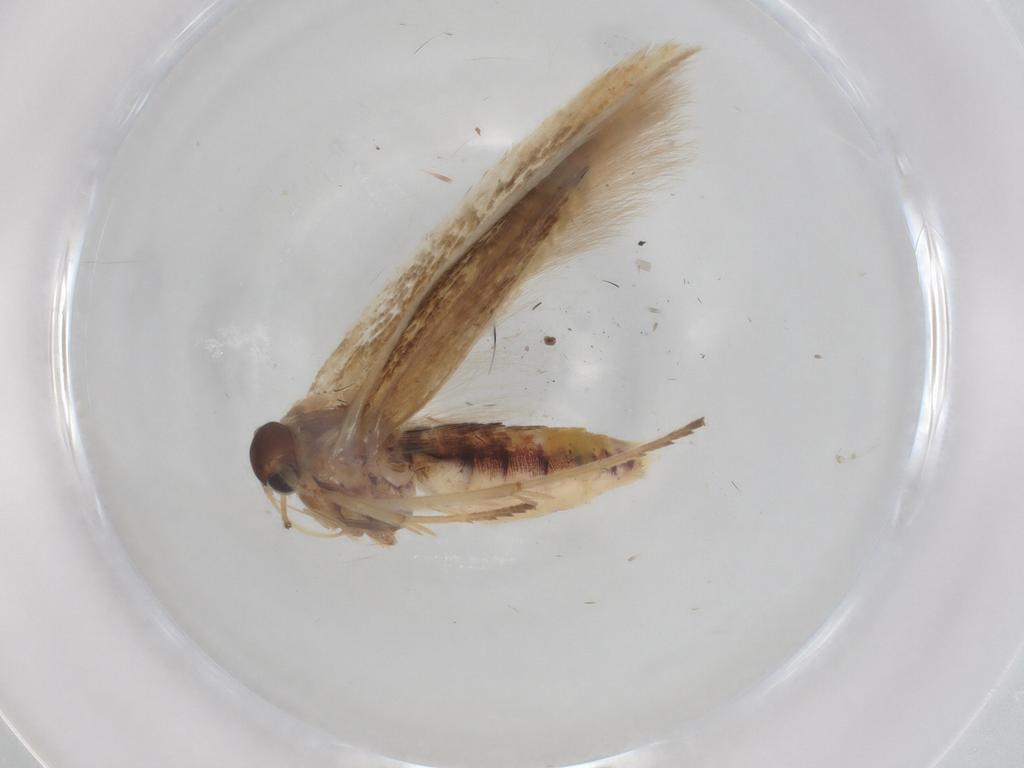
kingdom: Animalia
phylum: Arthropoda
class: Insecta
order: Lepidoptera
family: Scythrididae
